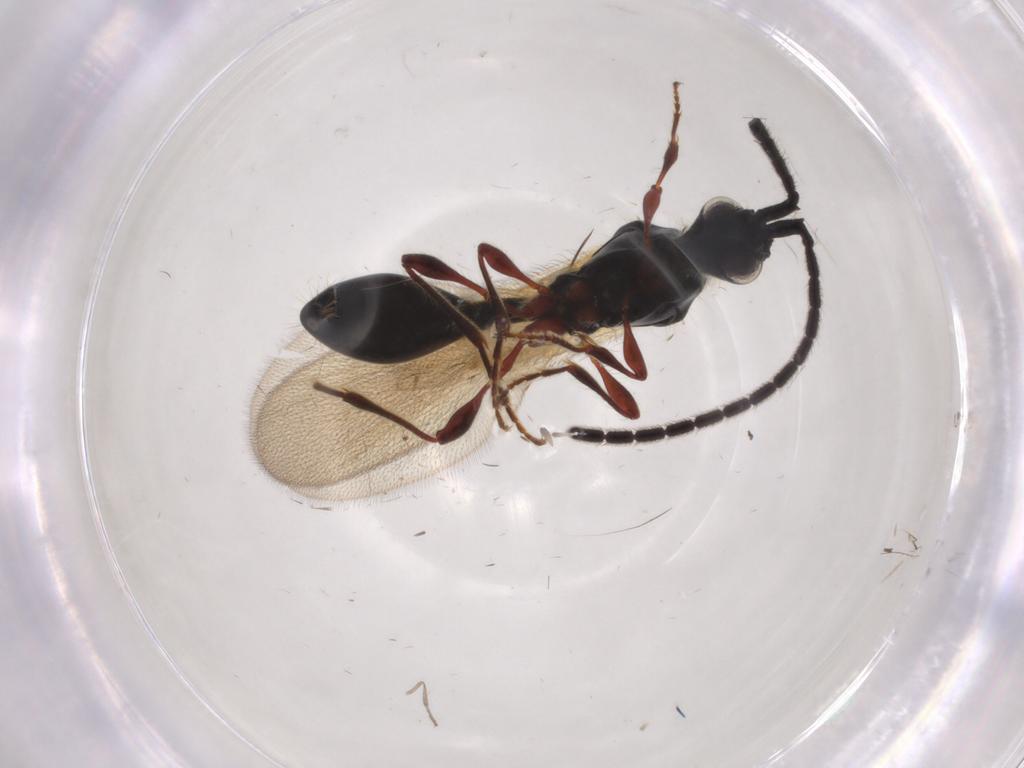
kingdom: Animalia
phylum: Arthropoda
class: Insecta
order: Hymenoptera
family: Diapriidae
